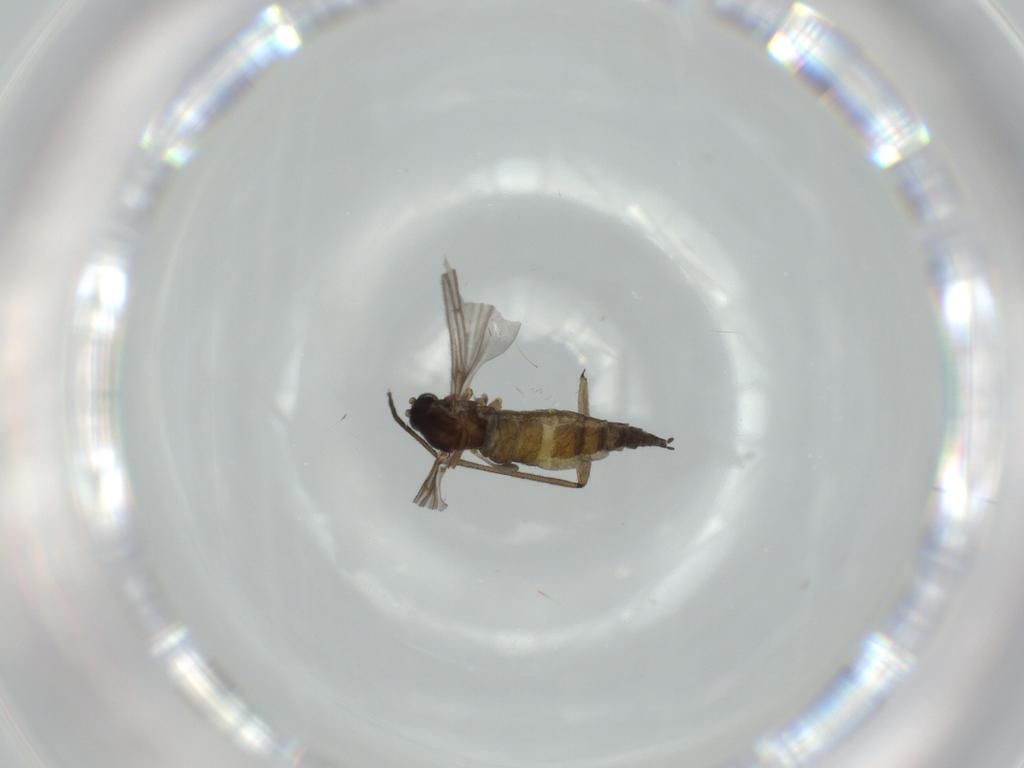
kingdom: Animalia
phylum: Arthropoda
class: Insecta
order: Diptera
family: Sciaridae
